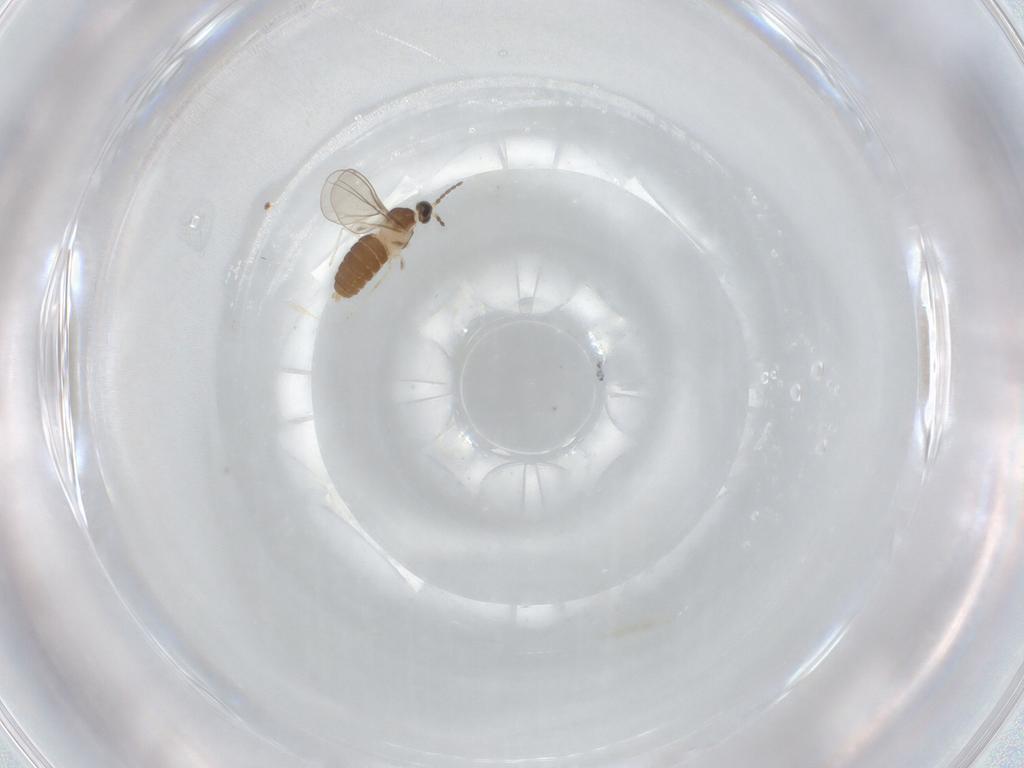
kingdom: Animalia
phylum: Arthropoda
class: Insecta
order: Diptera
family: Cecidomyiidae
